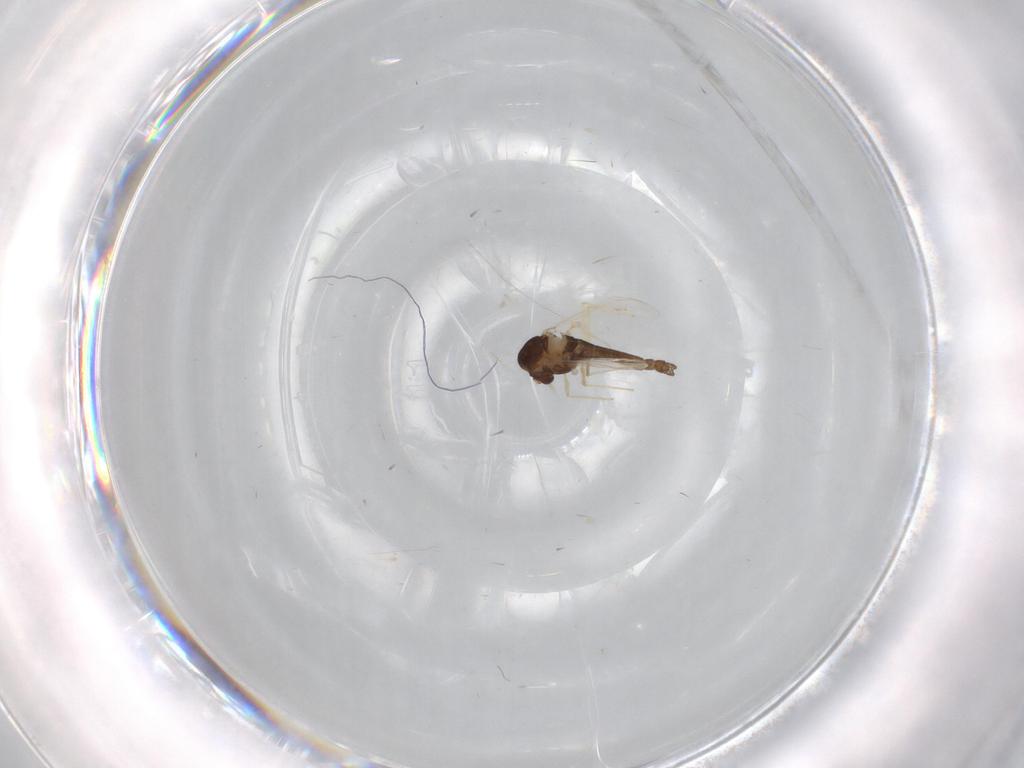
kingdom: Animalia
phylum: Arthropoda
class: Insecta
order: Diptera
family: Chironomidae
